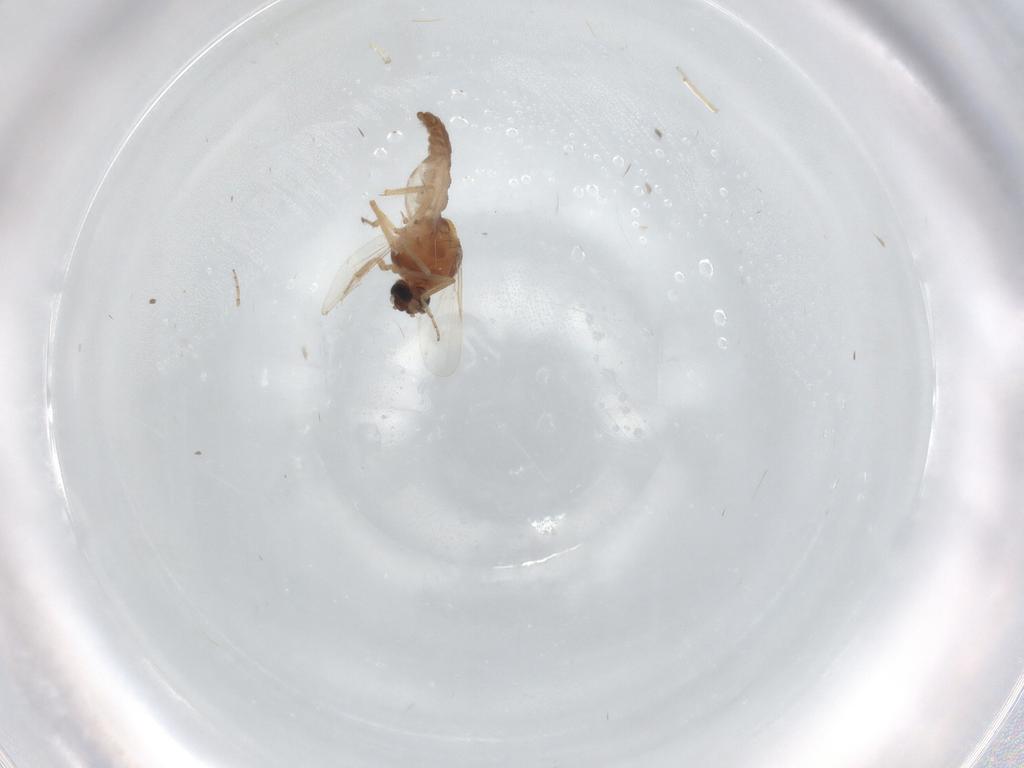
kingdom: Animalia
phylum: Arthropoda
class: Insecta
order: Diptera
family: Ceratopogonidae
